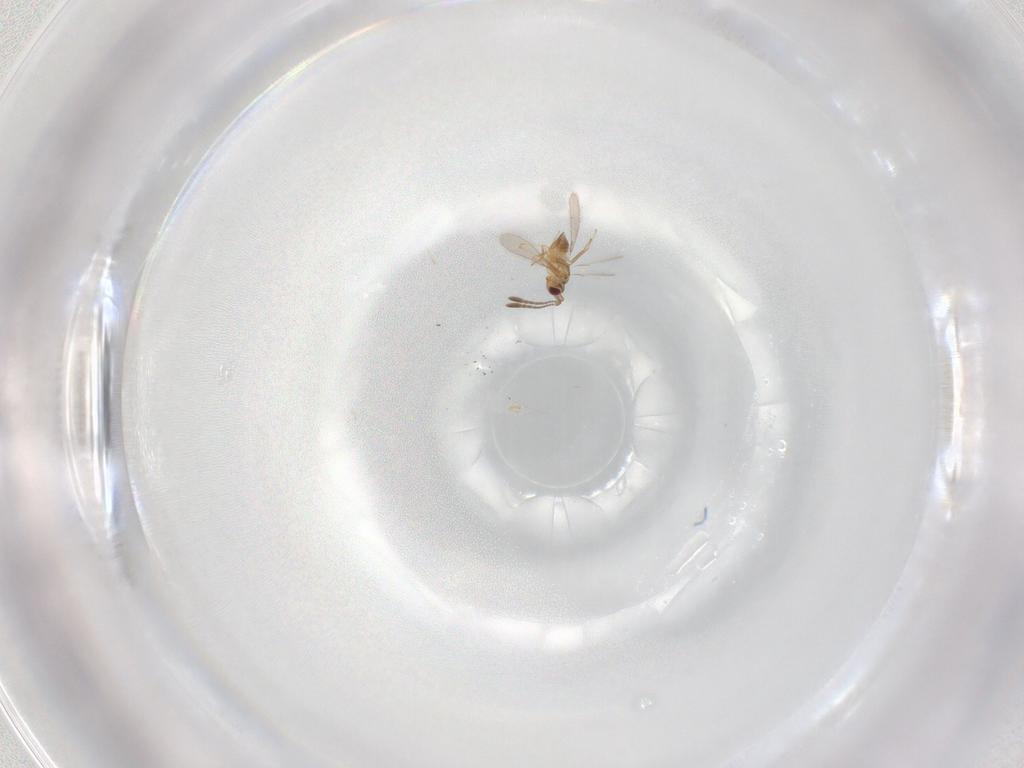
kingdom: Animalia
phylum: Arthropoda
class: Insecta
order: Hymenoptera
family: Mymaridae
